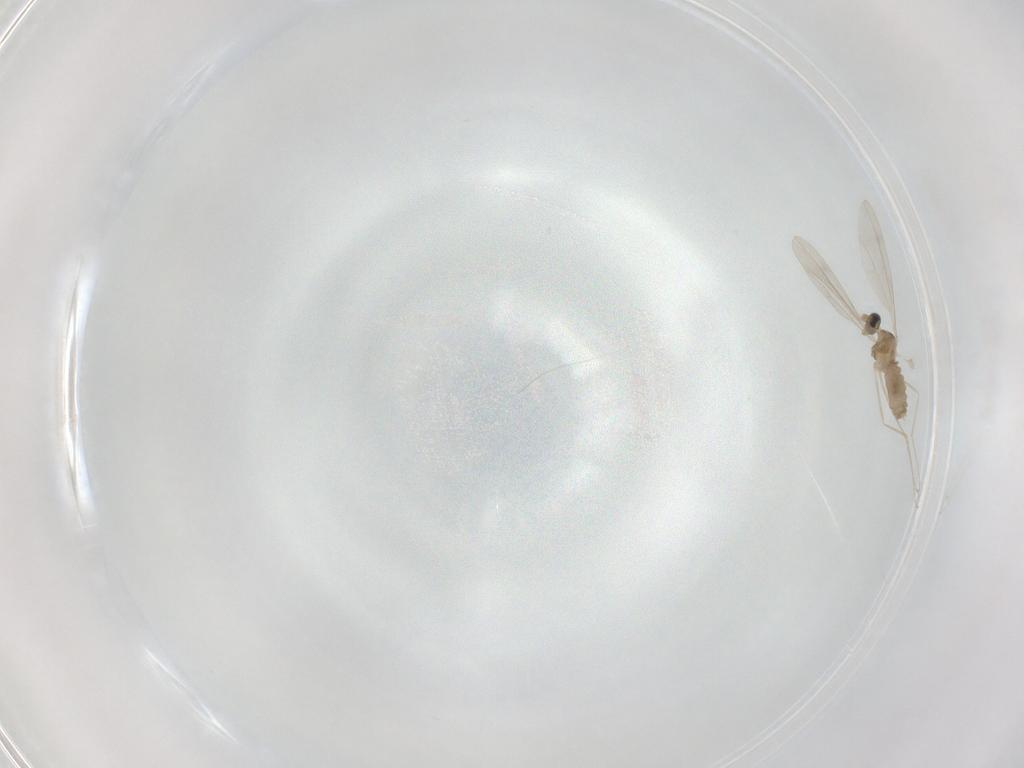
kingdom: Animalia
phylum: Arthropoda
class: Insecta
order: Diptera
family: Cecidomyiidae
